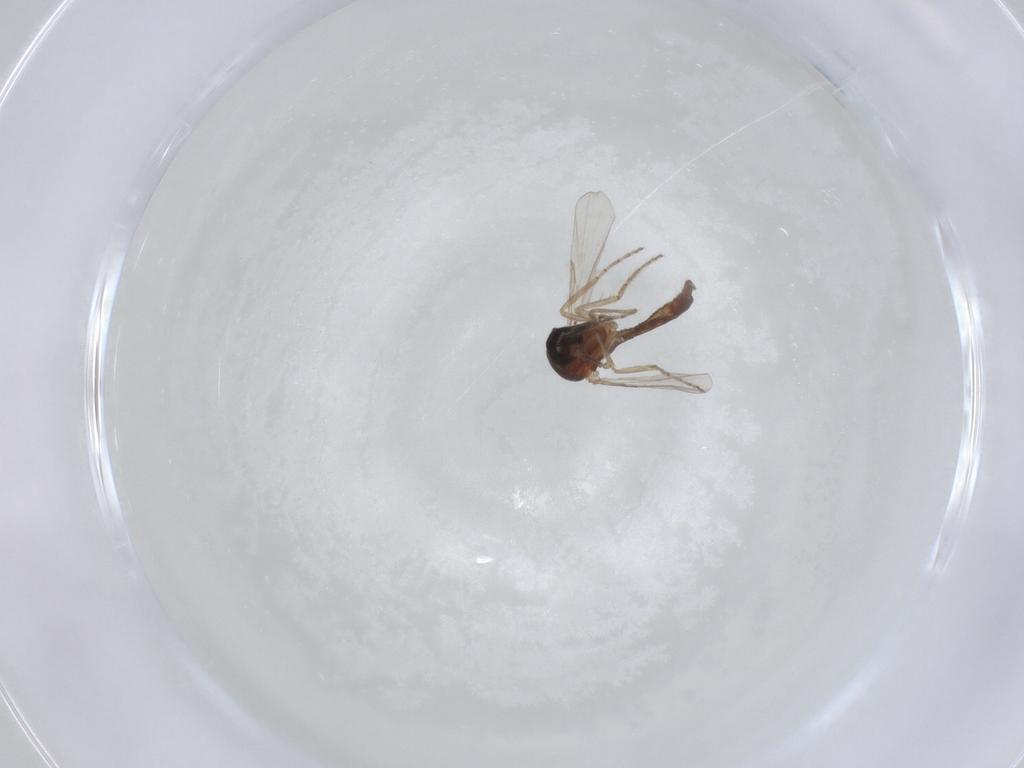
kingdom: Animalia
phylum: Arthropoda
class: Insecta
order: Diptera
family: Ceratopogonidae
